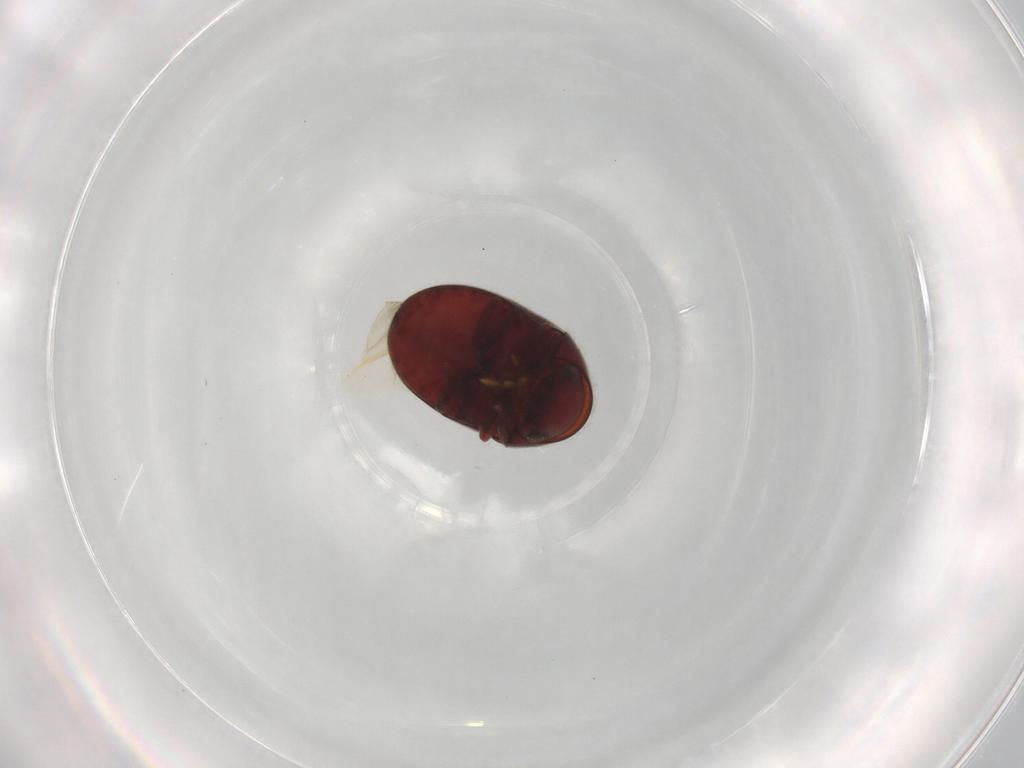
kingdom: Animalia
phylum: Arthropoda
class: Insecta
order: Coleoptera
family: Ptinidae
